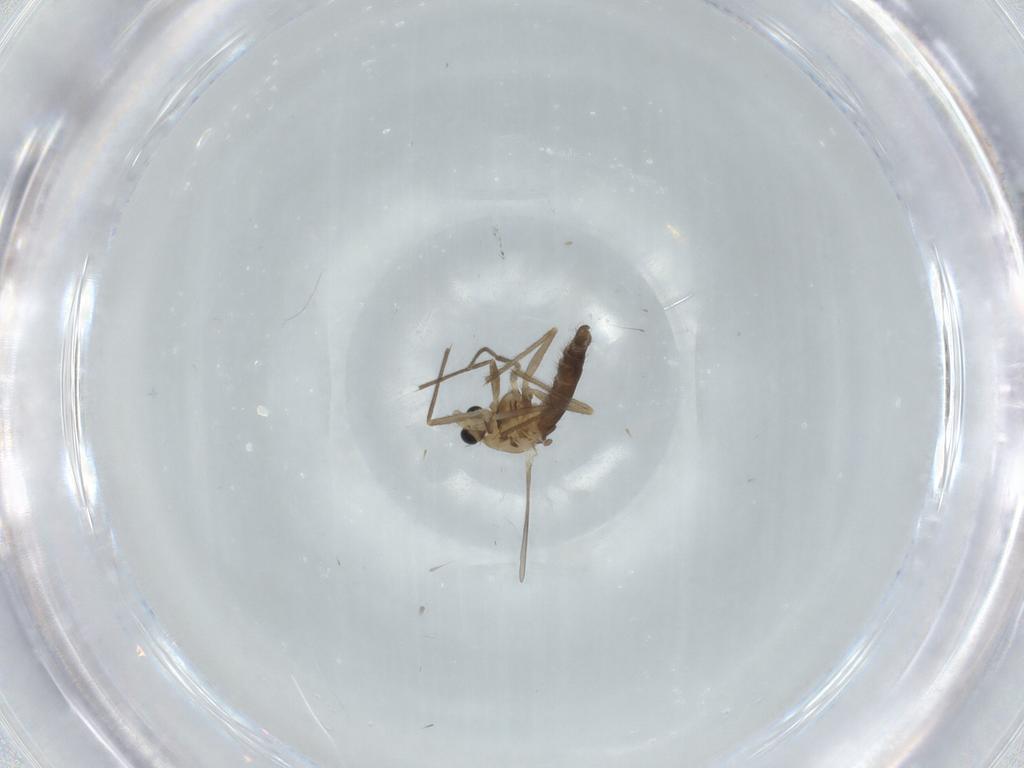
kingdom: Animalia
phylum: Arthropoda
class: Insecta
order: Diptera
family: Chironomidae
